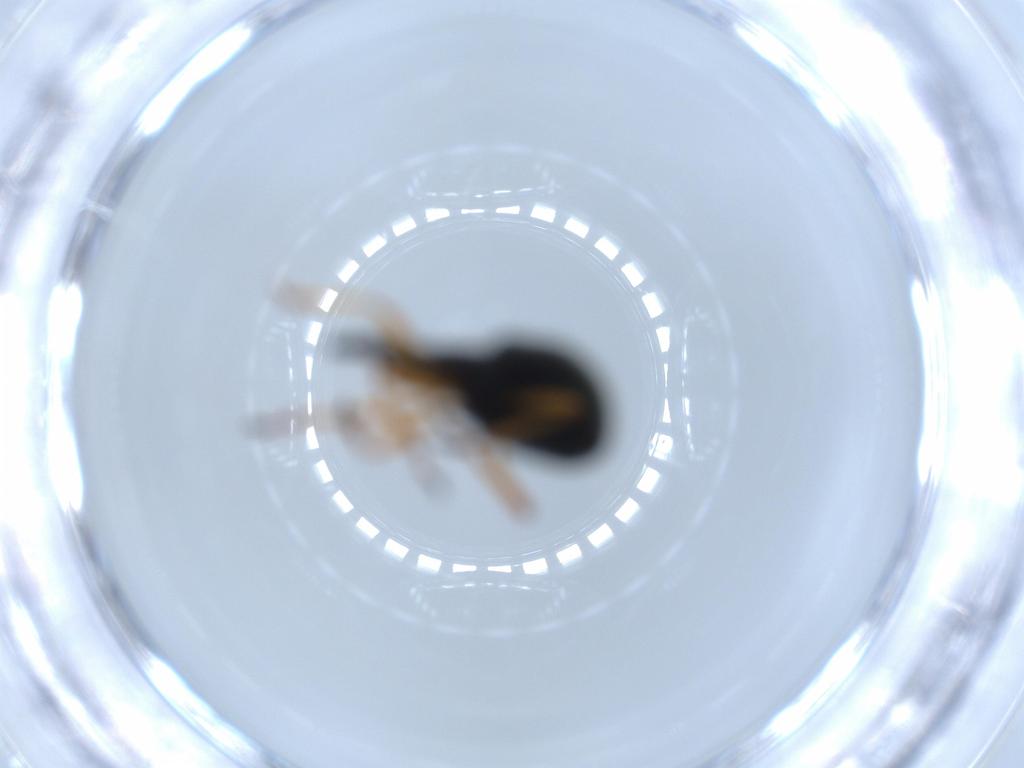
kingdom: Animalia
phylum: Arthropoda
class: Insecta
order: Coleoptera
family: Brentidae
